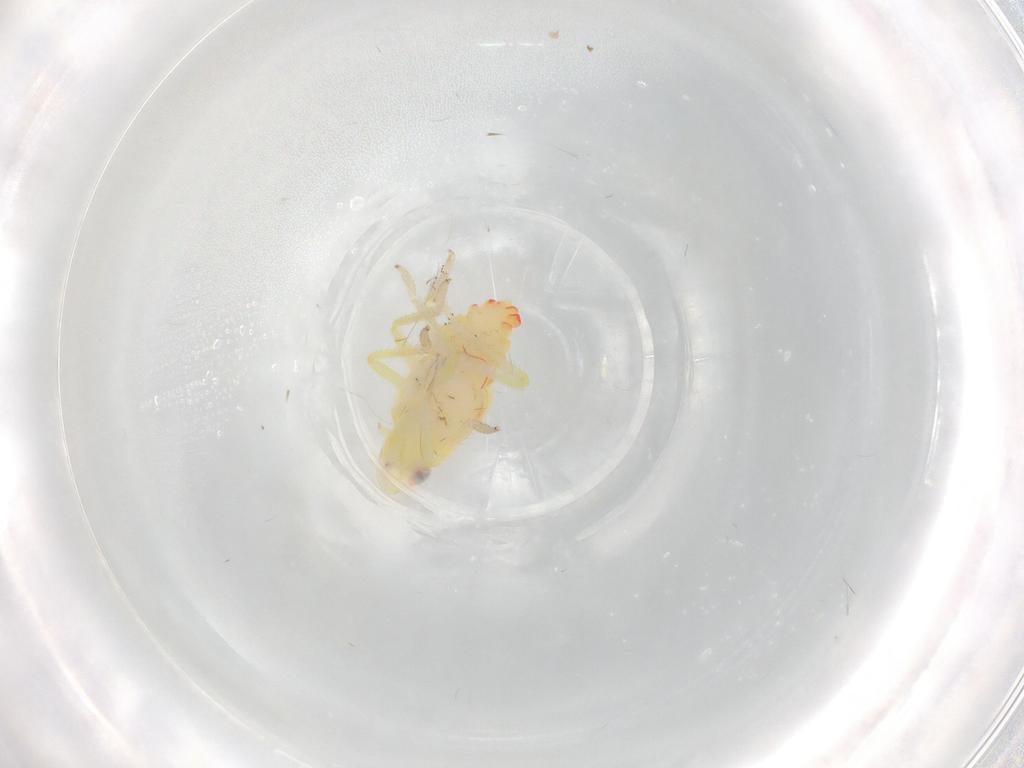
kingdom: Animalia
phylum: Arthropoda
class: Insecta
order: Hemiptera
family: Tropiduchidae
